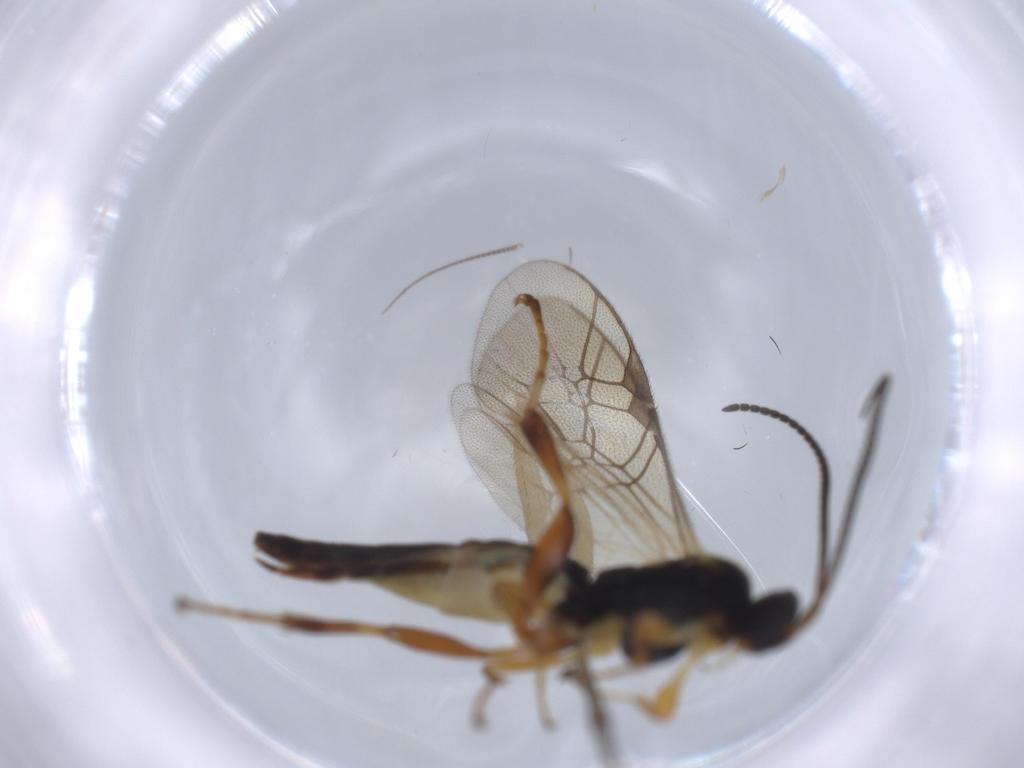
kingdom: Animalia
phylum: Arthropoda
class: Insecta
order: Hymenoptera
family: Ichneumonidae
